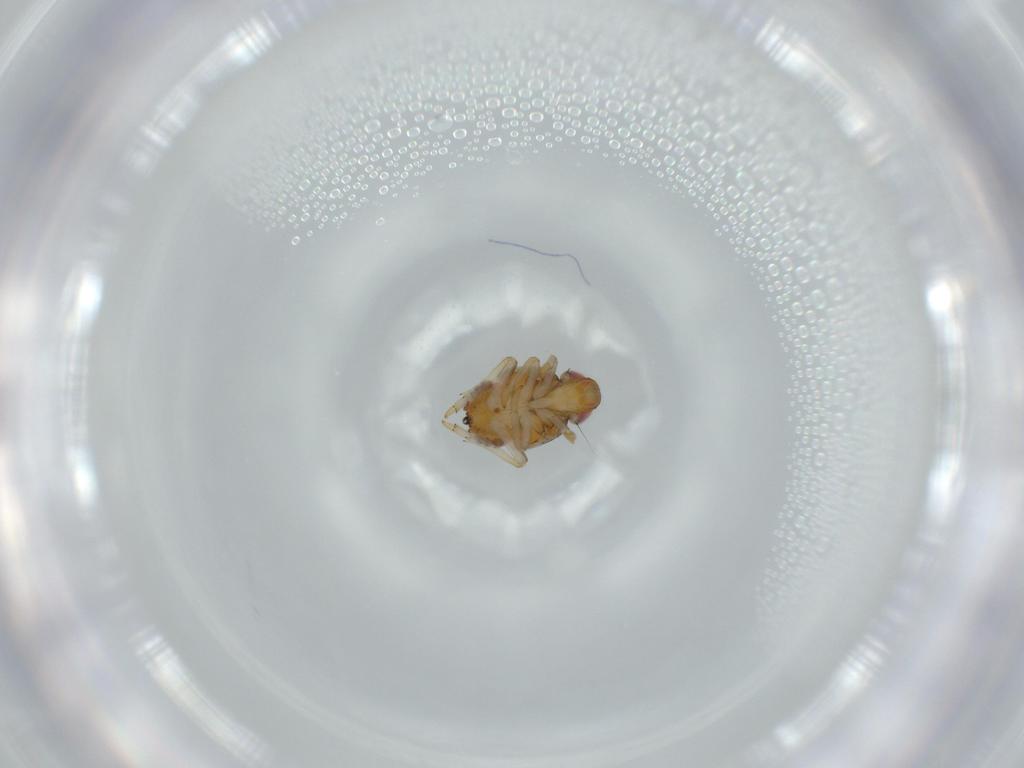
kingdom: Animalia
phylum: Arthropoda
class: Insecta
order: Hemiptera
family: Issidae
